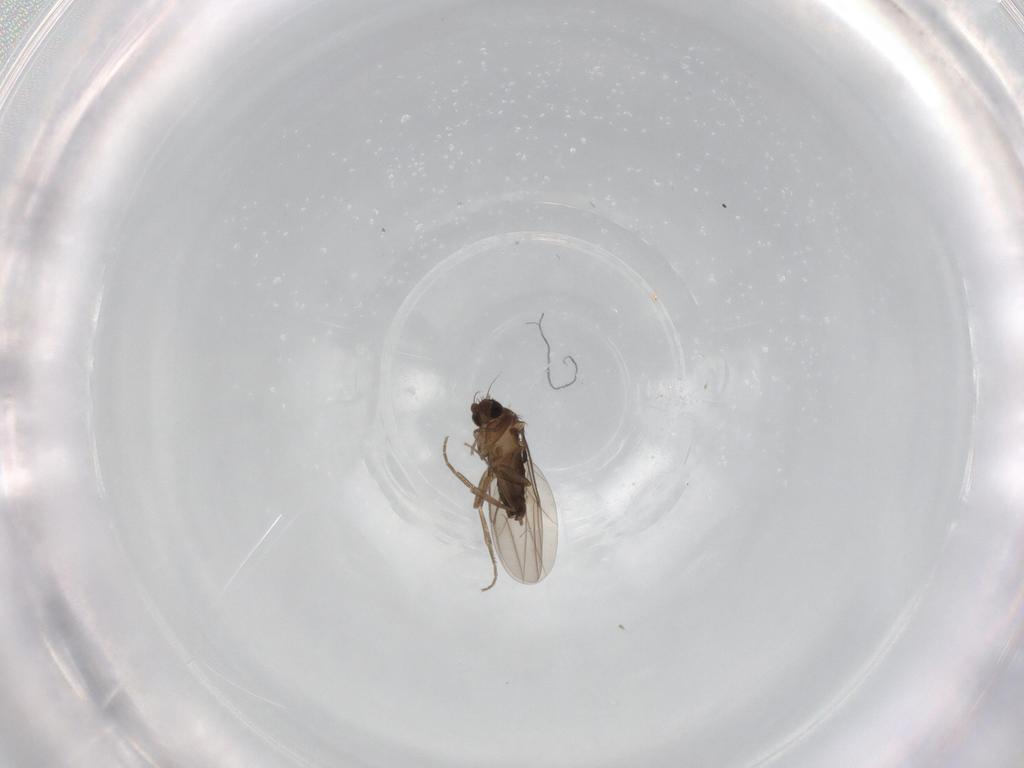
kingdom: Animalia
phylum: Arthropoda
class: Insecta
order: Diptera
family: Phoridae
